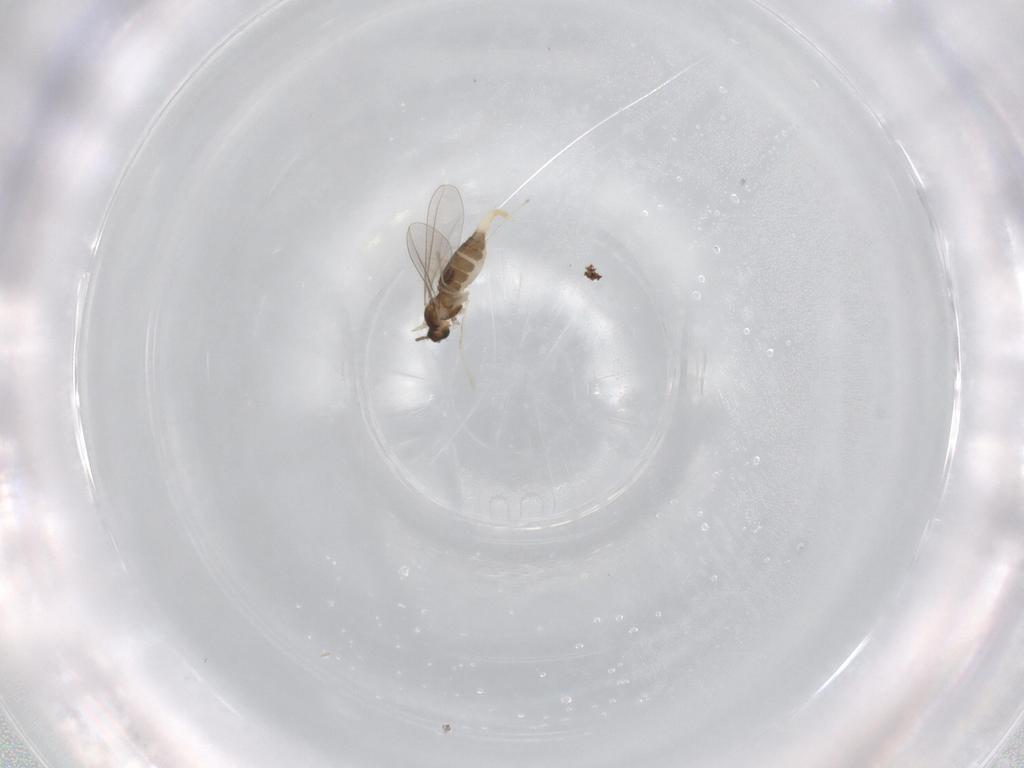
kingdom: Animalia
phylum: Arthropoda
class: Insecta
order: Diptera
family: Cecidomyiidae
